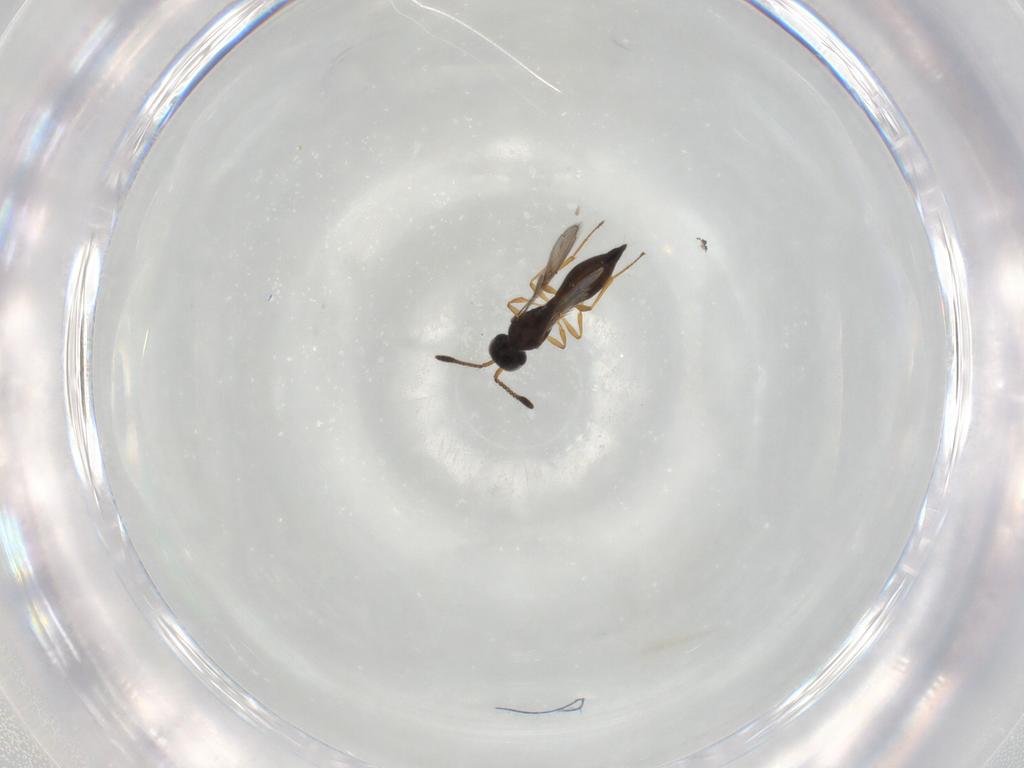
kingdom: Animalia
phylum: Arthropoda
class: Insecta
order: Hymenoptera
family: Scelionidae
